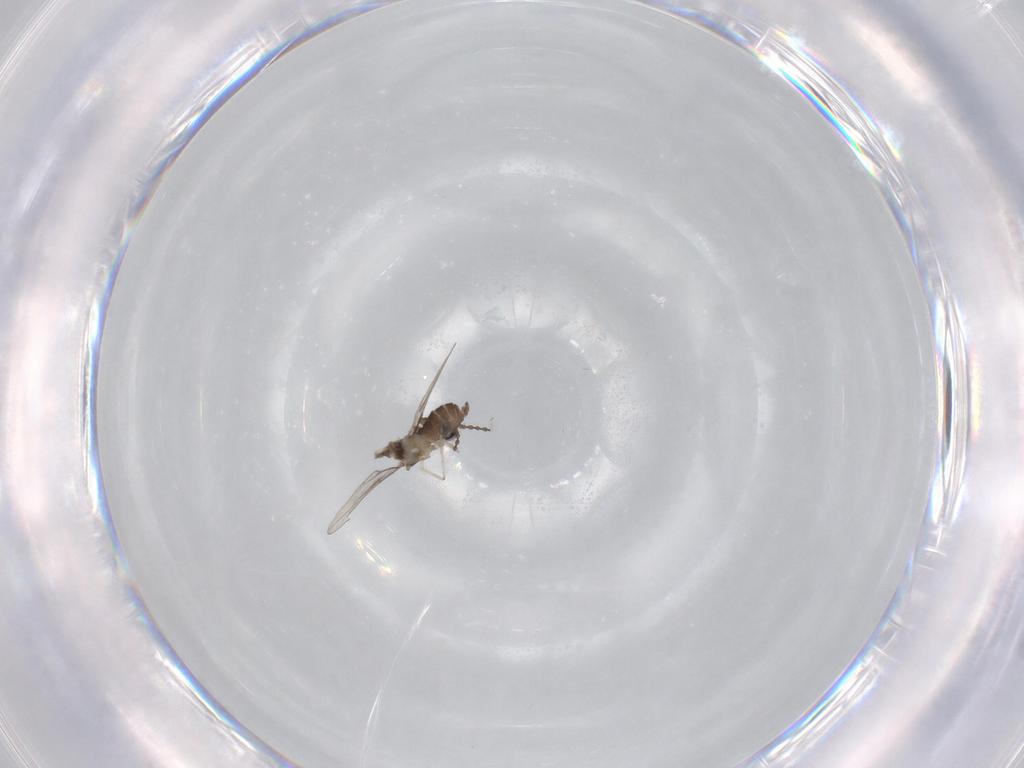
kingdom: Animalia
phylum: Arthropoda
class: Insecta
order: Diptera
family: Cecidomyiidae
